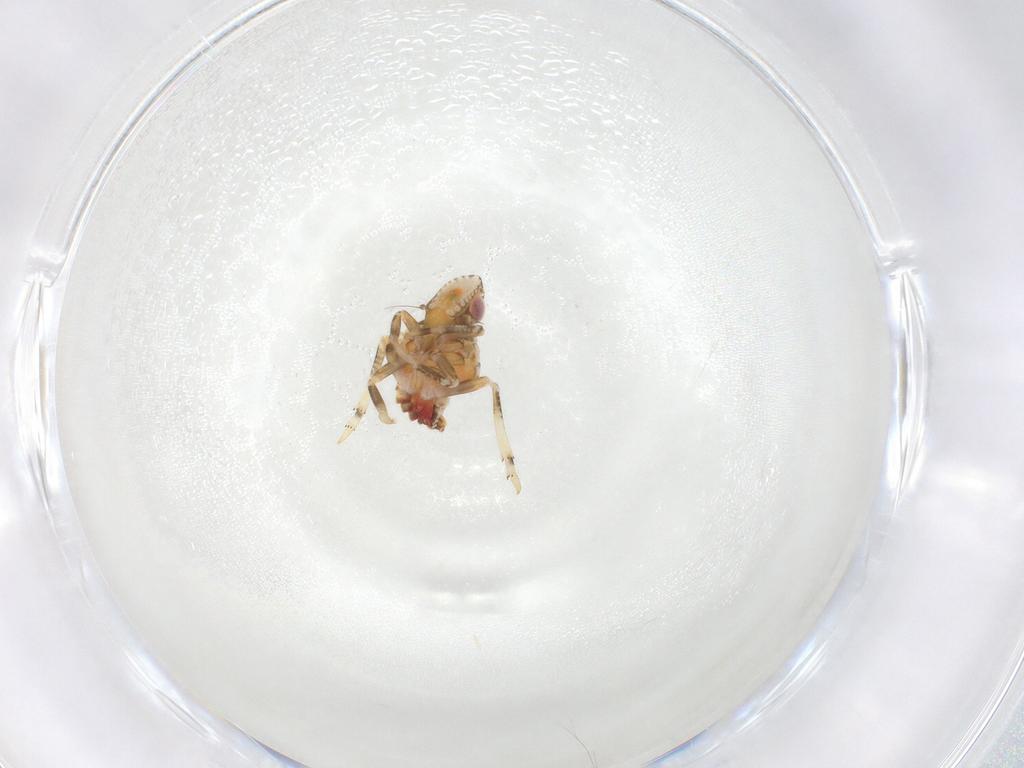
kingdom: Animalia
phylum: Arthropoda
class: Insecta
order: Hemiptera
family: Tropiduchidae
